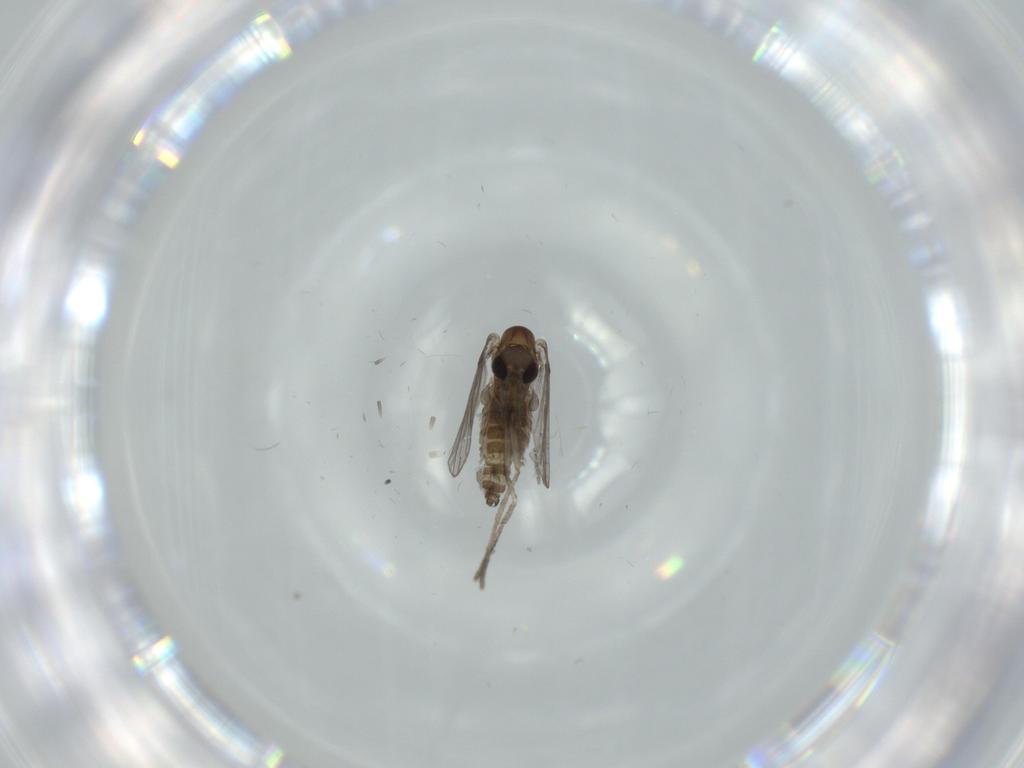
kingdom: Animalia
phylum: Arthropoda
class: Insecta
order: Diptera
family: Psychodidae
